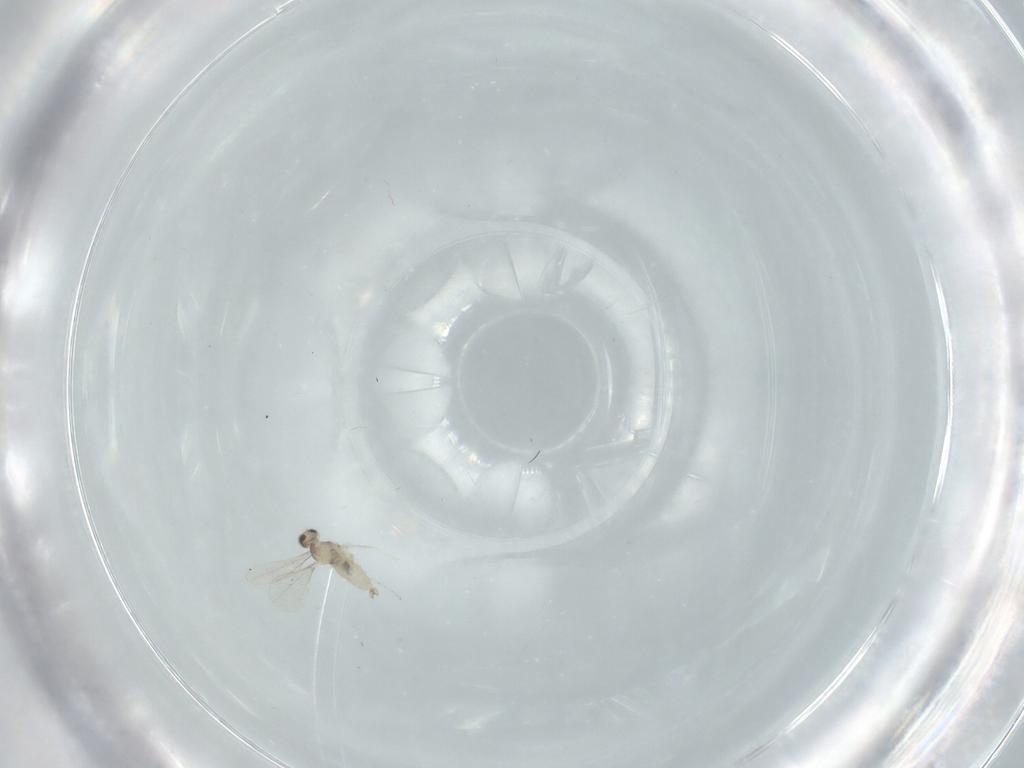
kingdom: Animalia
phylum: Arthropoda
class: Insecta
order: Diptera
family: Cecidomyiidae
